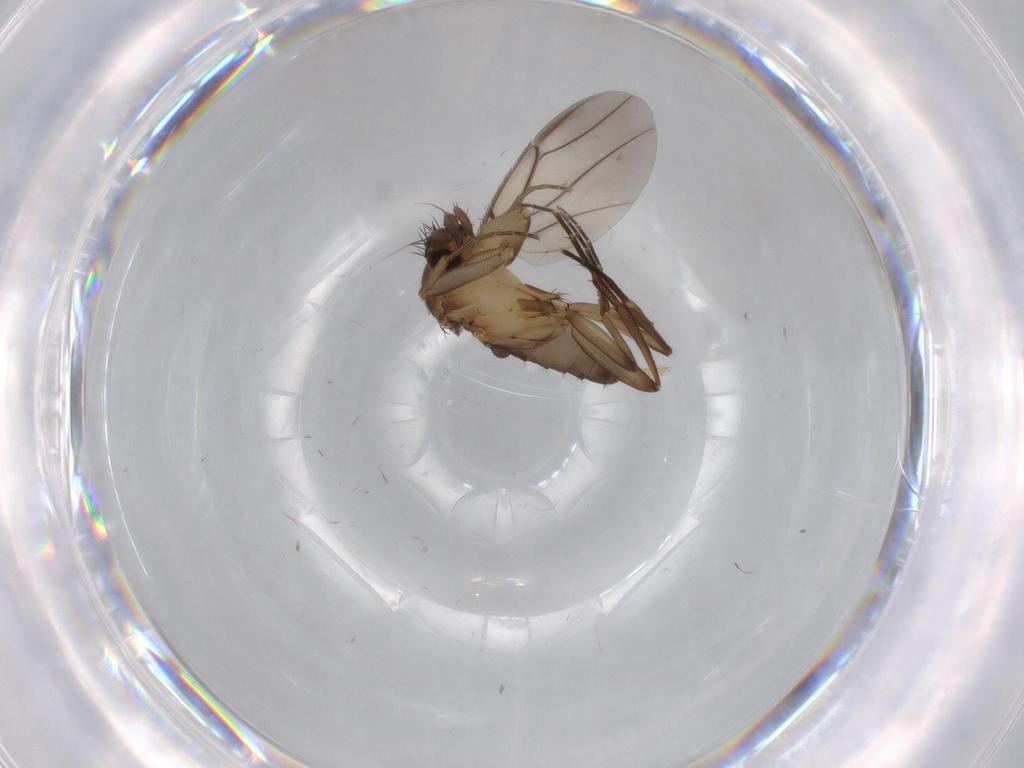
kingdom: Animalia
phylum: Arthropoda
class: Insecta
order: Diptera
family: Phoridae
